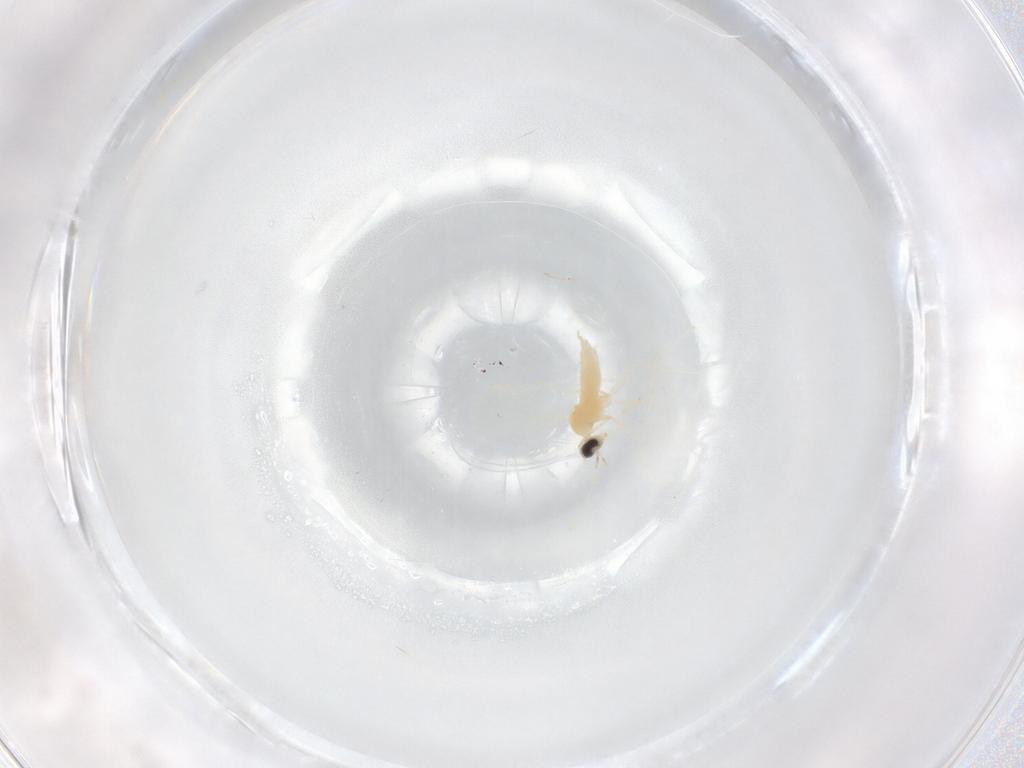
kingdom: Animalia
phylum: Arthropoda
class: Insecta
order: Diptera
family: Cecidomyiidae
